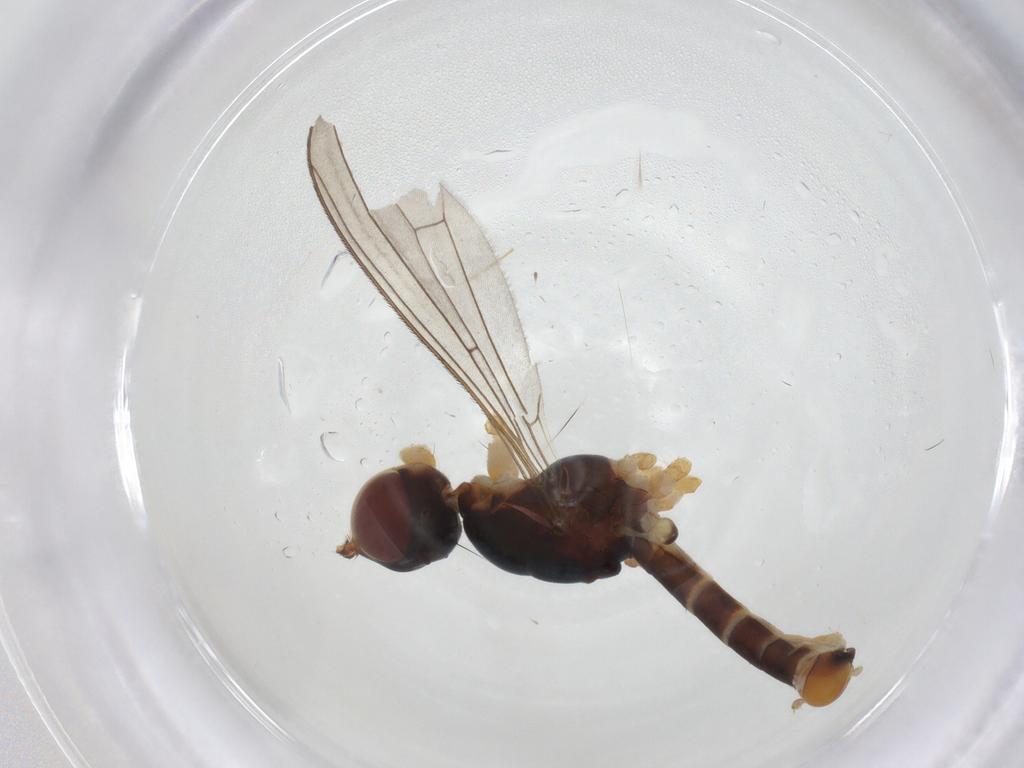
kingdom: Animalia
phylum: Arthropoda
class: Insecta
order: Diptera
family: Micropezidae
